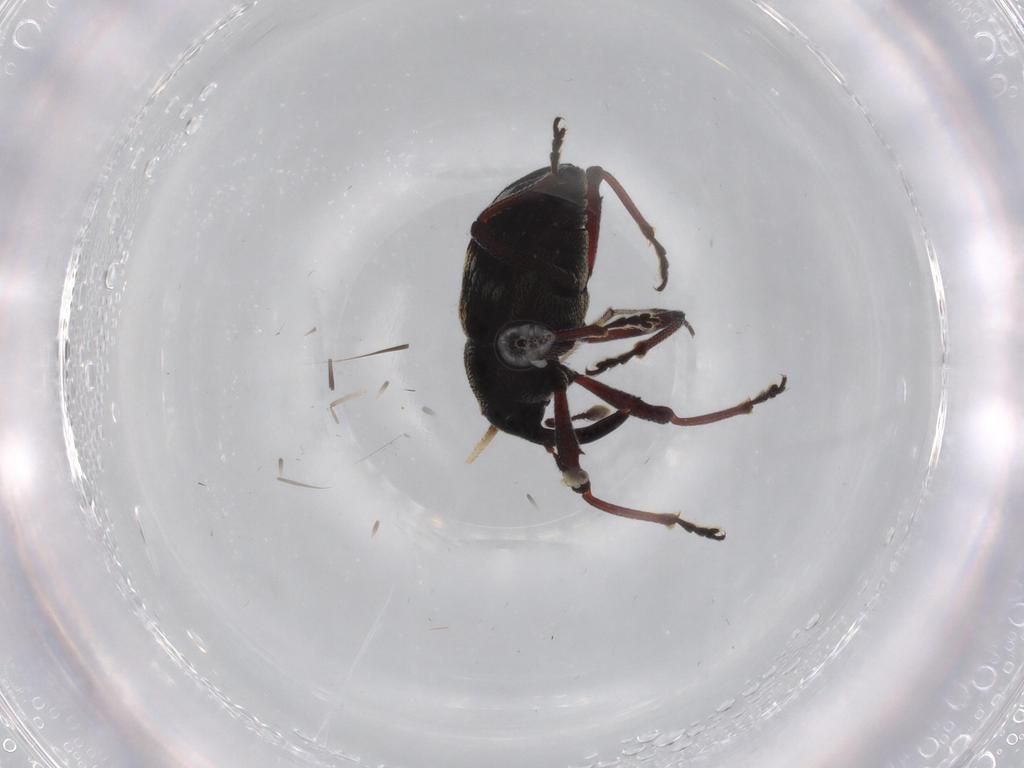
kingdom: Animalia
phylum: Arthropoda
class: Insecta
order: Coleoptera
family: Curculionidae
